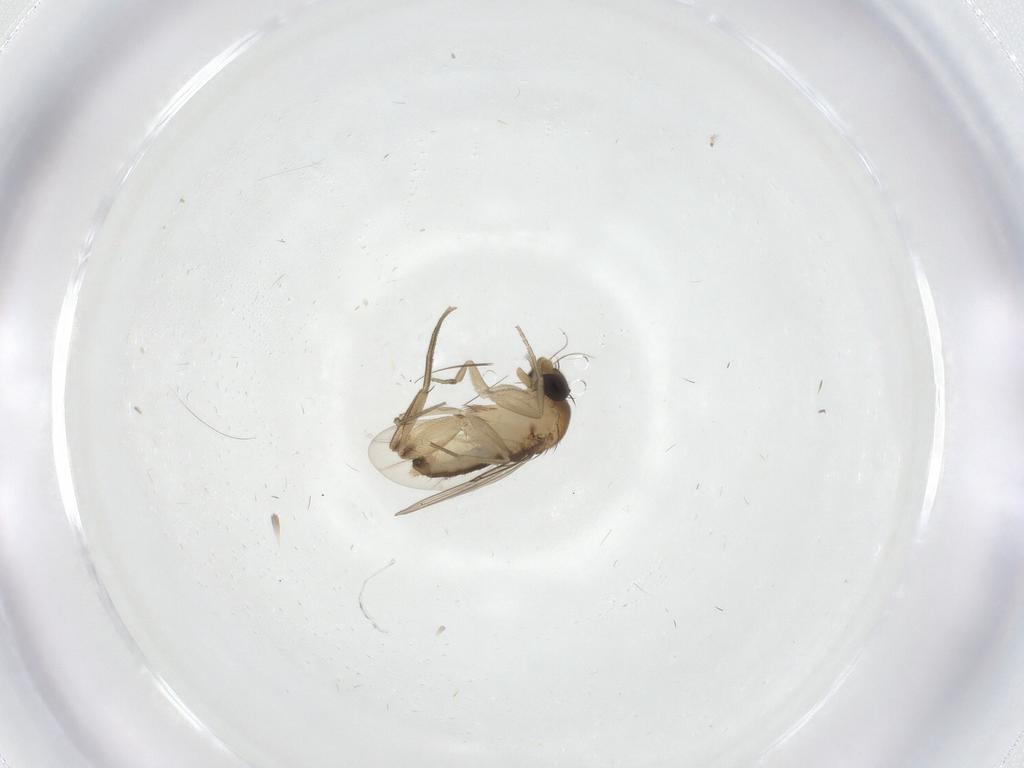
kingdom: Animalia
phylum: Arthropoda
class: Insecta
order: Diptera
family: Phoridae
